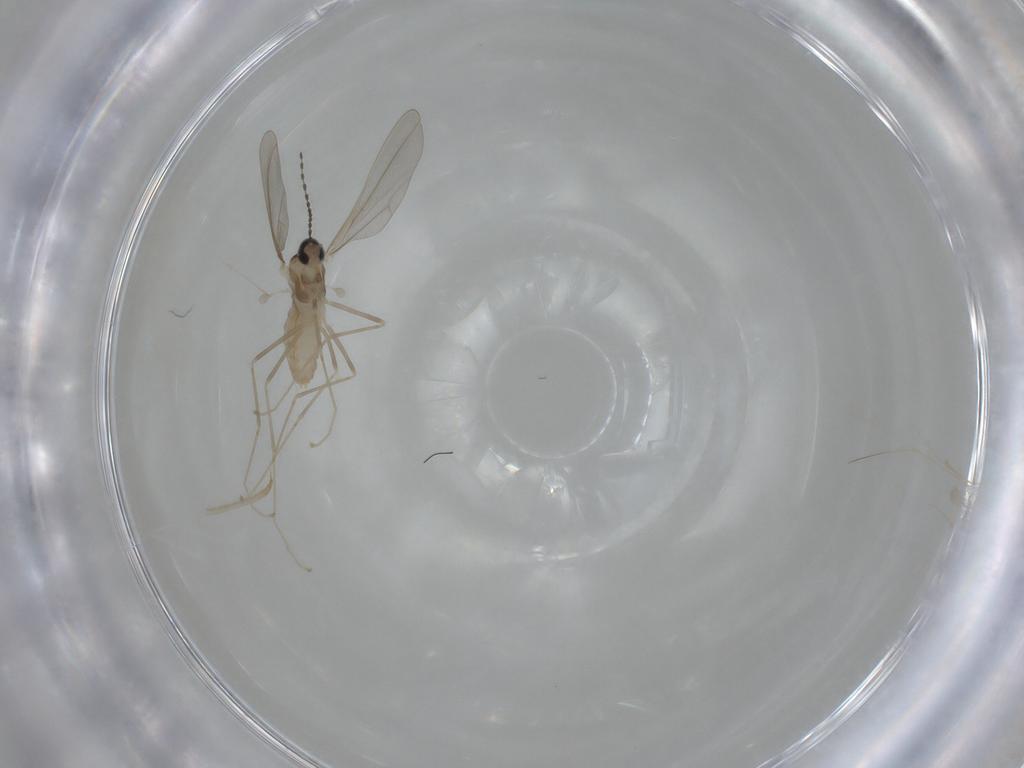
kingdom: Animalia
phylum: Arthropoda
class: Insecta
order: Diptera
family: Cecidomyiidae
